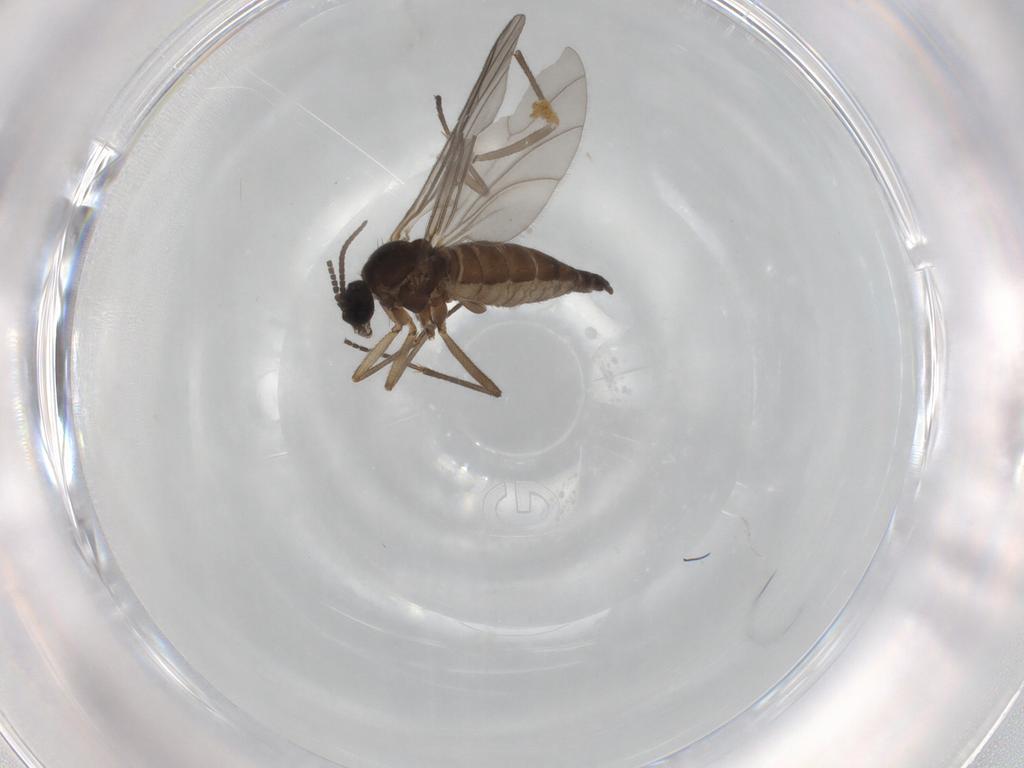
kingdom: Animalia
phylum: Arthropoda
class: Insecta
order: Diptera
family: Sciaridae
